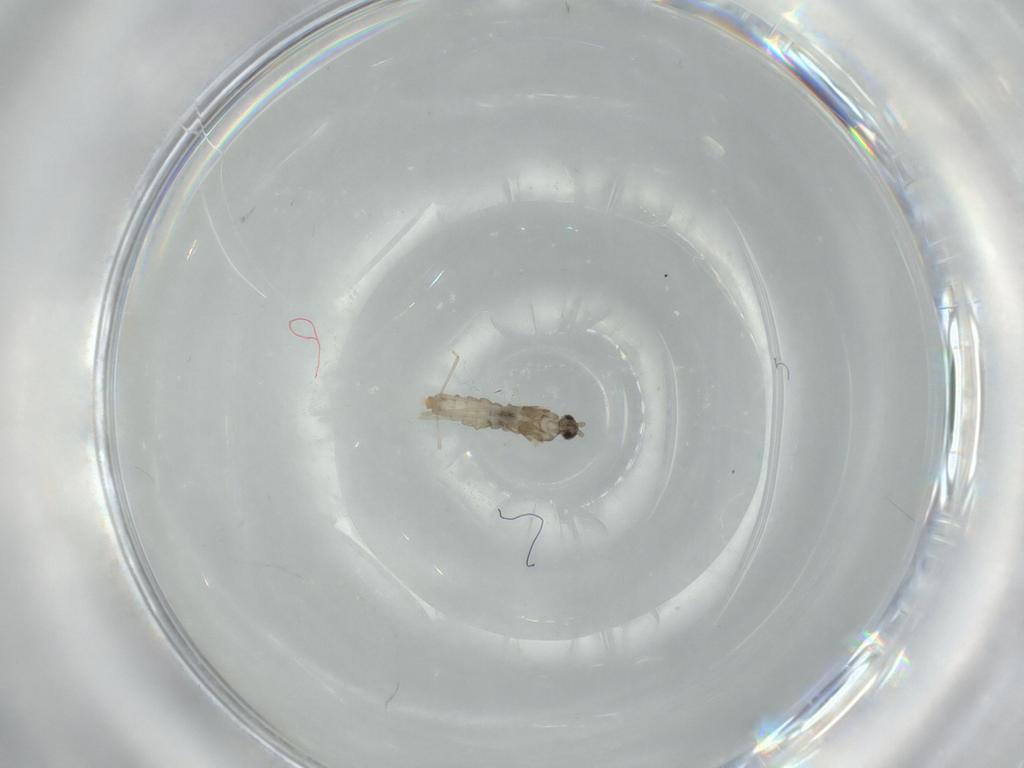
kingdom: Animalia
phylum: Arthropoda
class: Insecta
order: Diptera
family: Cecidomyiidae
